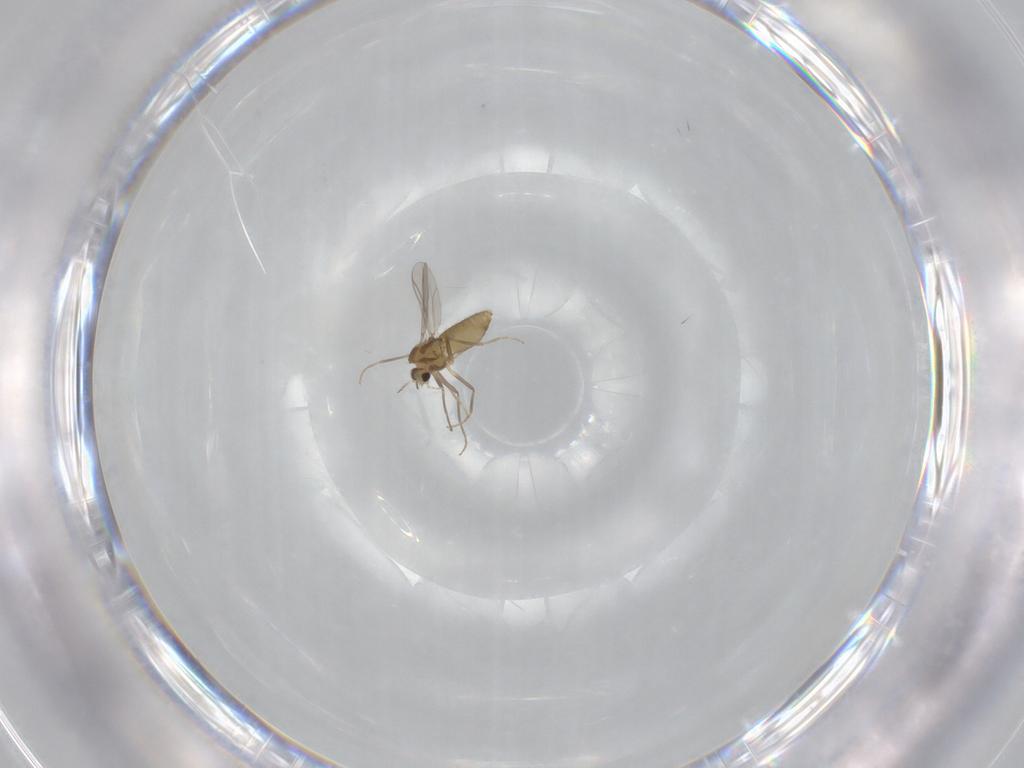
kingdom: Animalia
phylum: Arthropoda
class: Insecta
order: Diptera
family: Chironomidae
